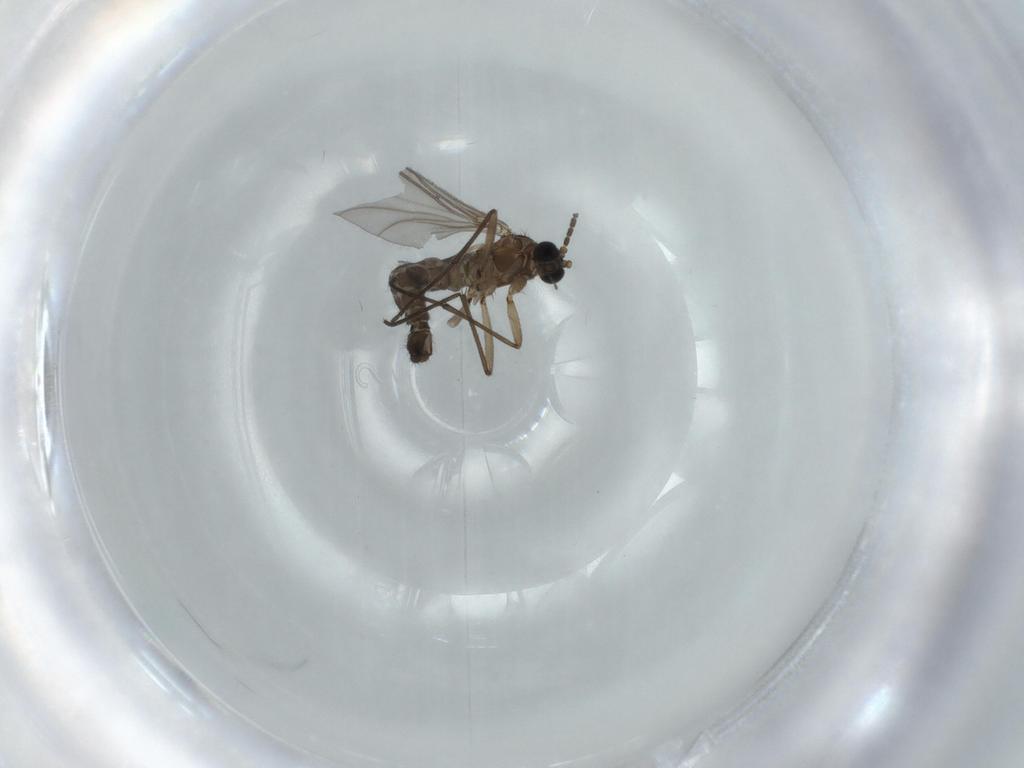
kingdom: Animalia
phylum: Arthropoda
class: Insecta
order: Diptera
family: Sciaridae
